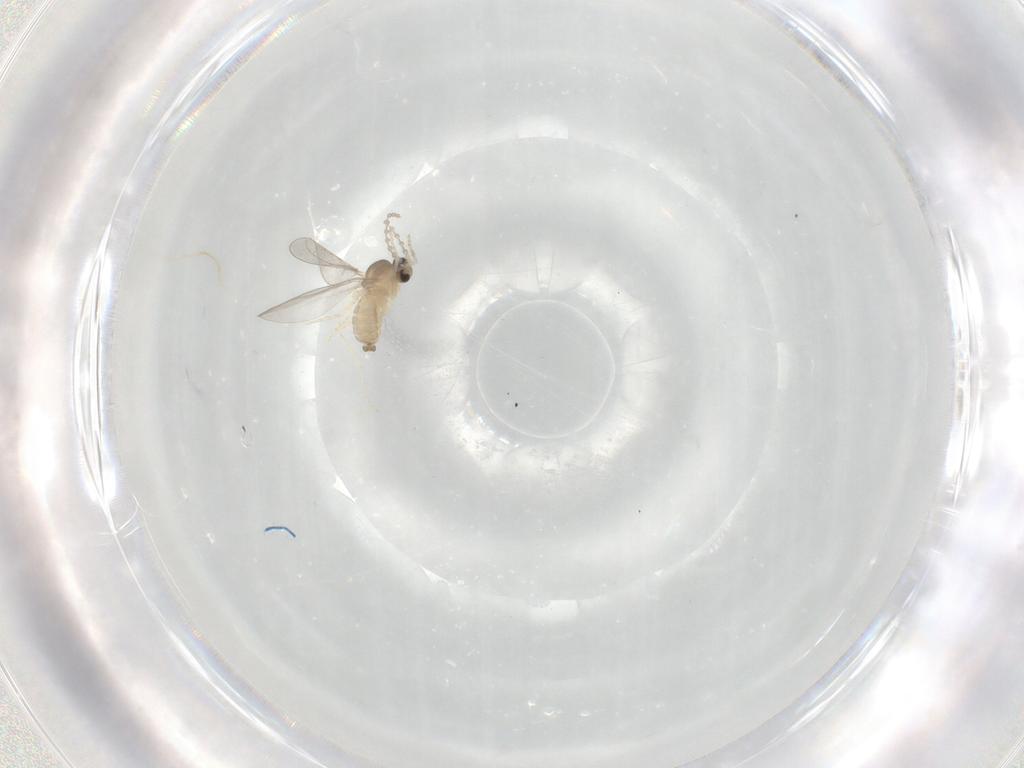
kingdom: Animalia
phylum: Arthropoda
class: Insecta
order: Diptera
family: Cecidomyiidae
